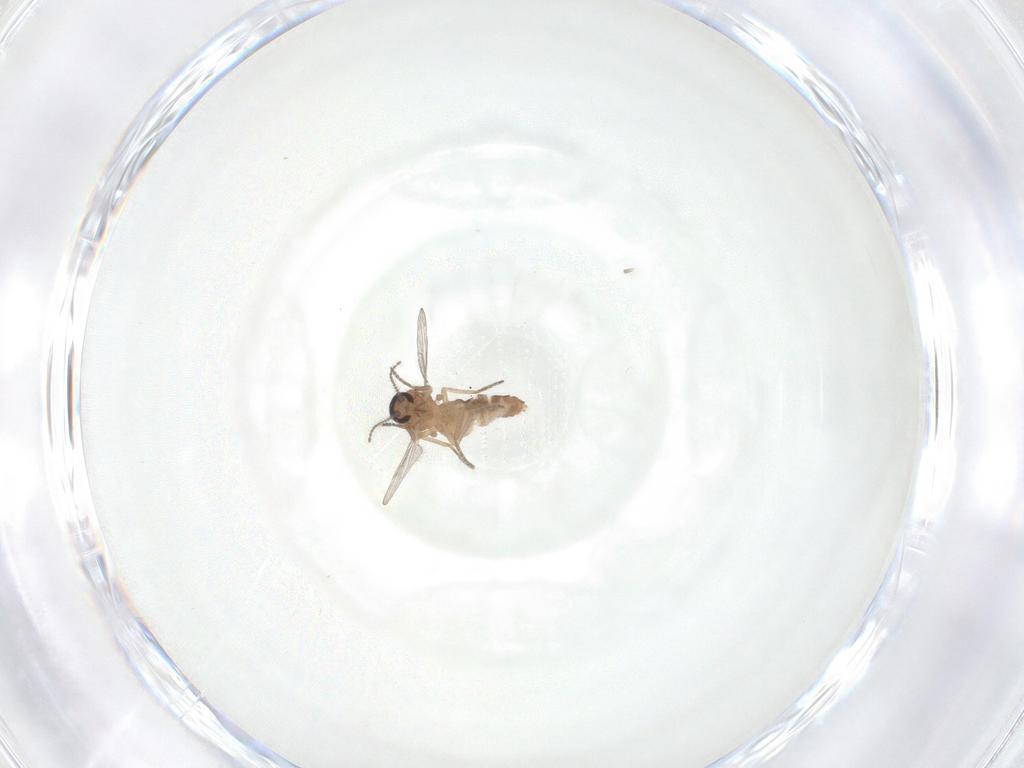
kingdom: Animalia
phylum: Arthropoda
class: Insecta
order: Diptera
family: Ceratopogonidae
